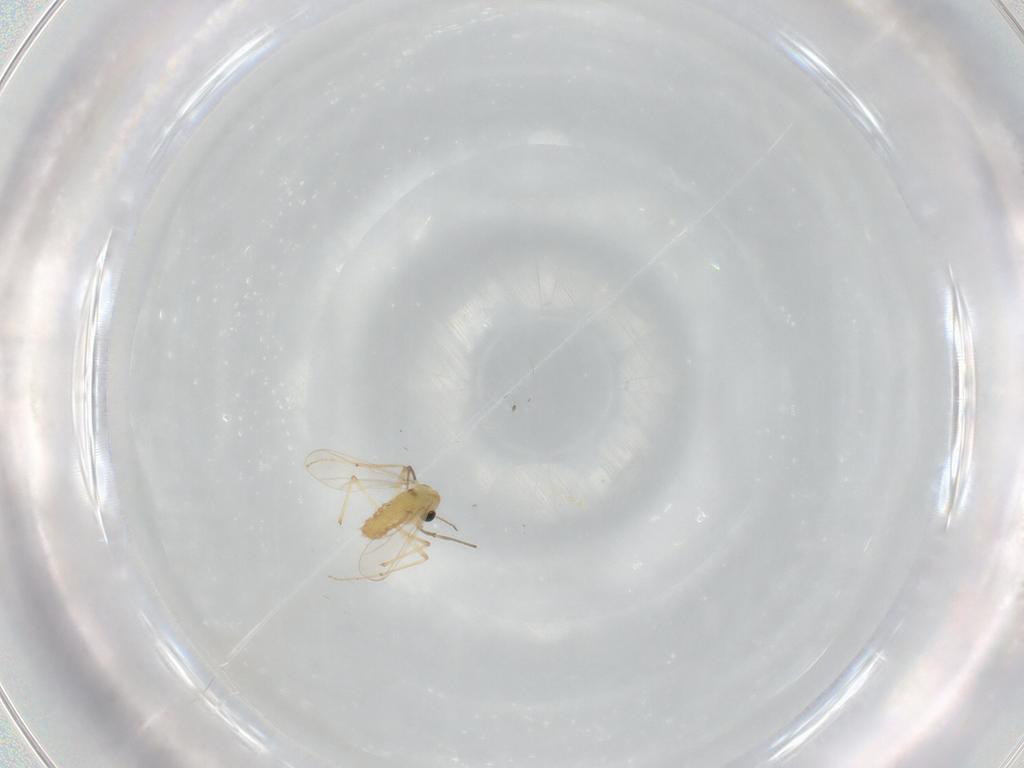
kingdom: Animalia
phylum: Arthropoda
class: Insecta
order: Diptera
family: Chironomidae
